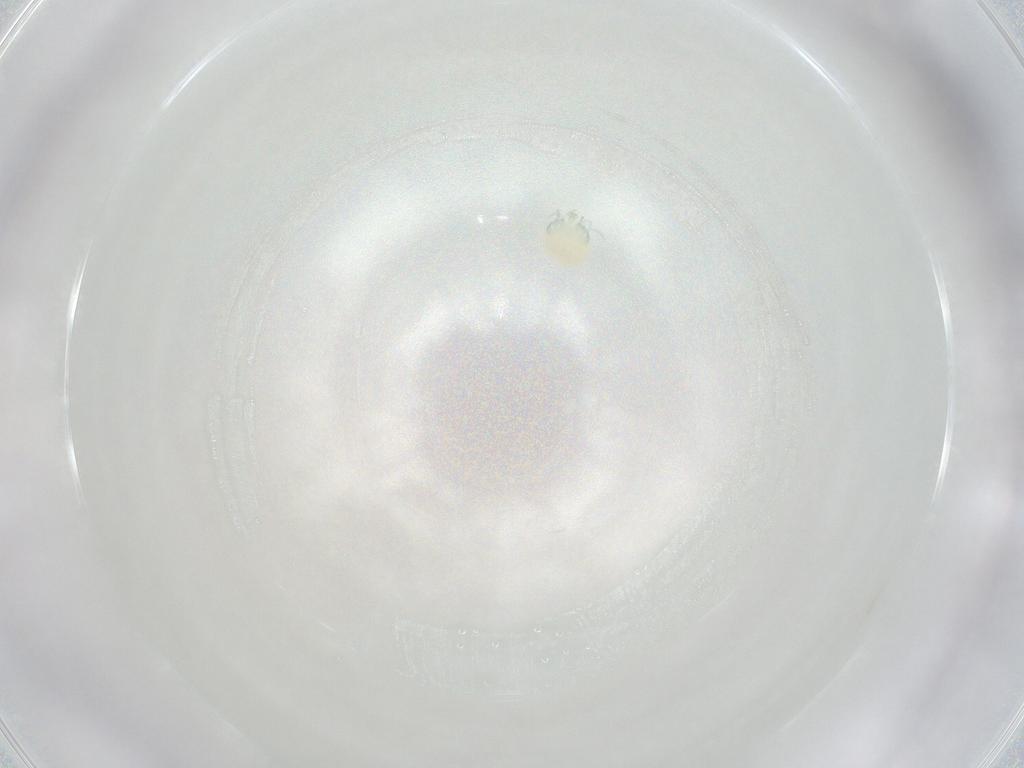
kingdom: Animalia
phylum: Arthropoda
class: Arachnida
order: Trombidiformes
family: Arrenuridae
